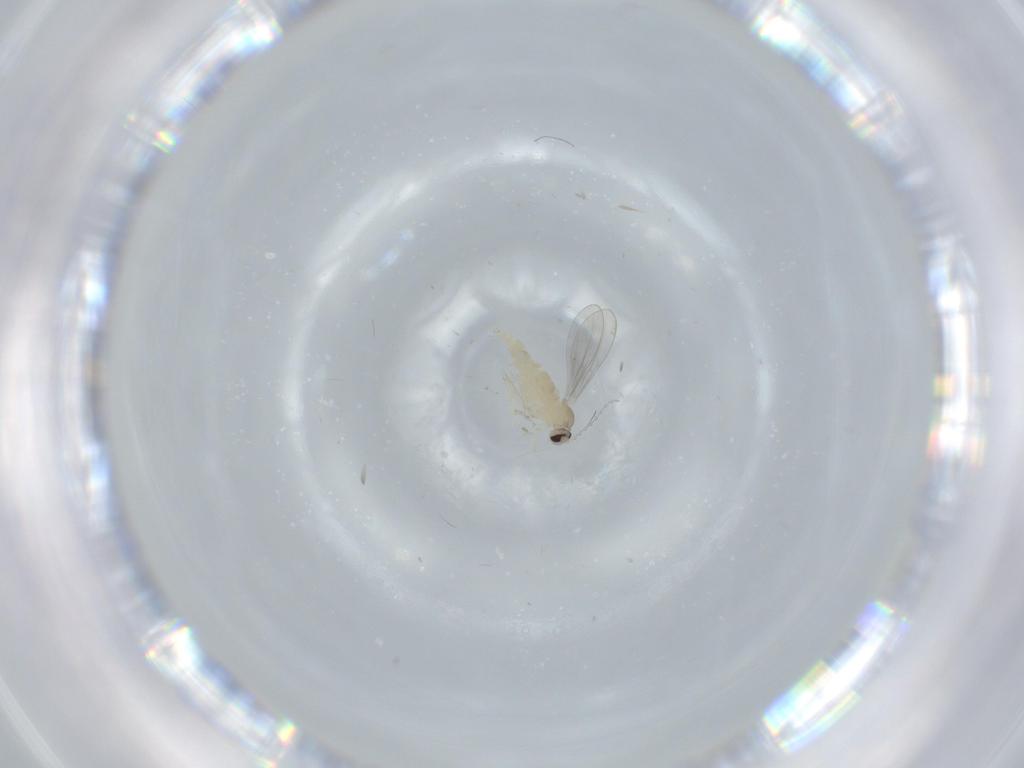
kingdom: Animalia
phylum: Arthropoda
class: Insecta
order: Diptera
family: Cecidomyiidae
